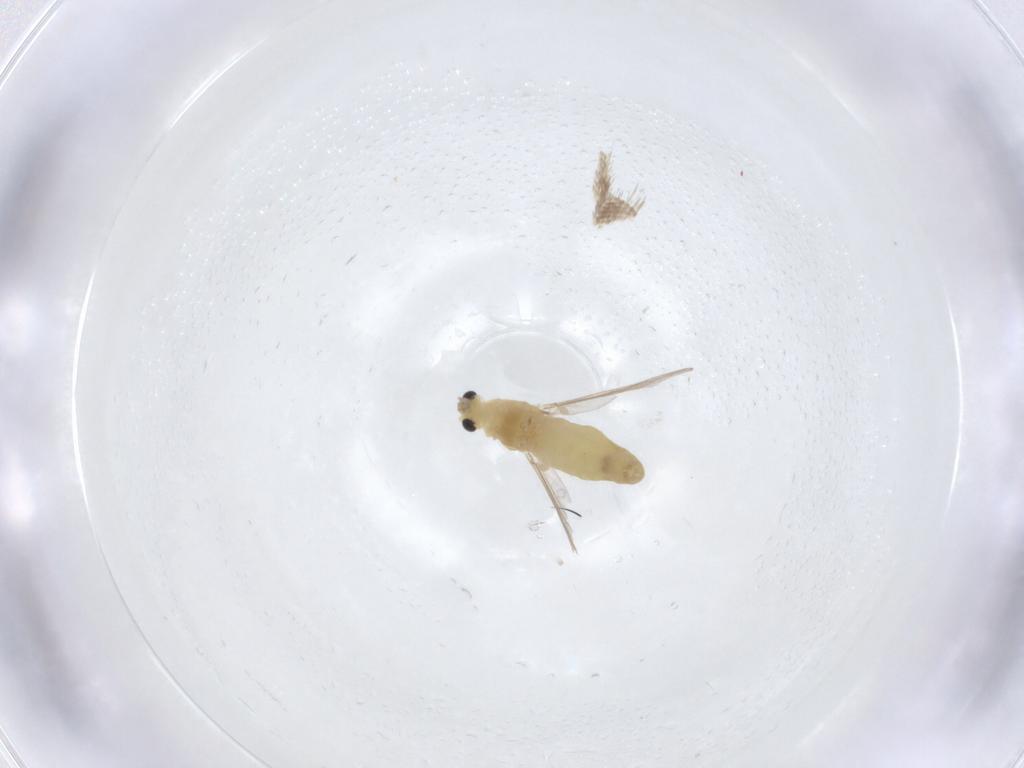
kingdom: Animalia
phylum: Arthropoda
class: Insecta
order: Diptera
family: Chironomidae
